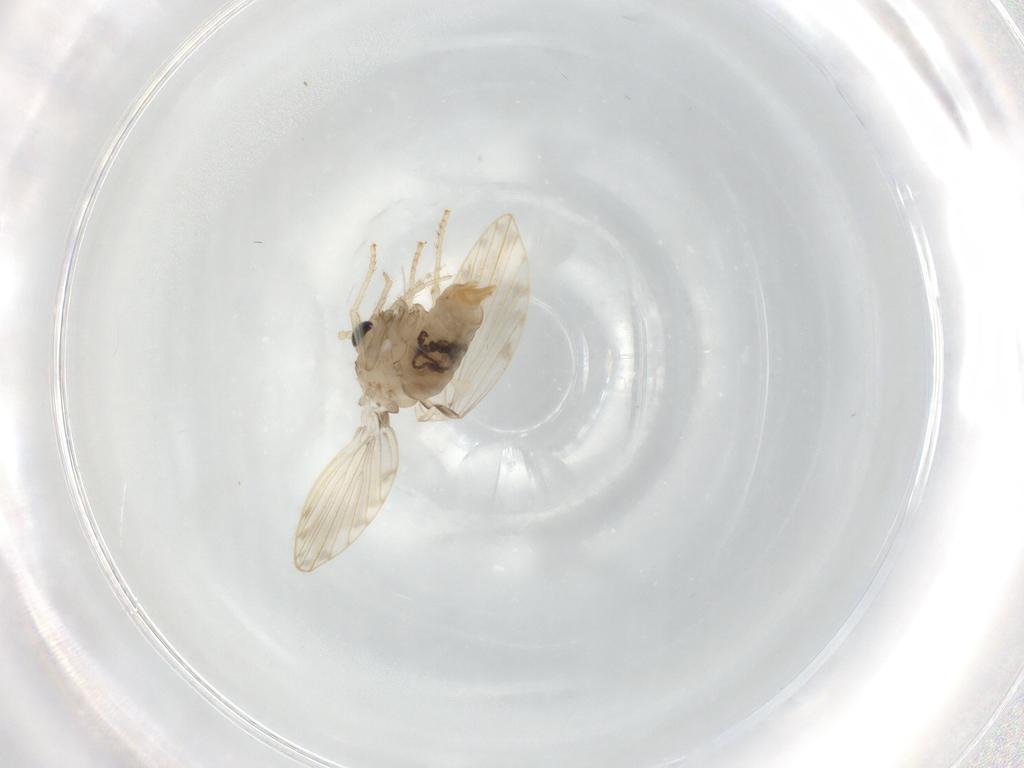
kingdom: Animalia
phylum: Arthropoda
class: Insecta
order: Diptera
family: Psychodidae
